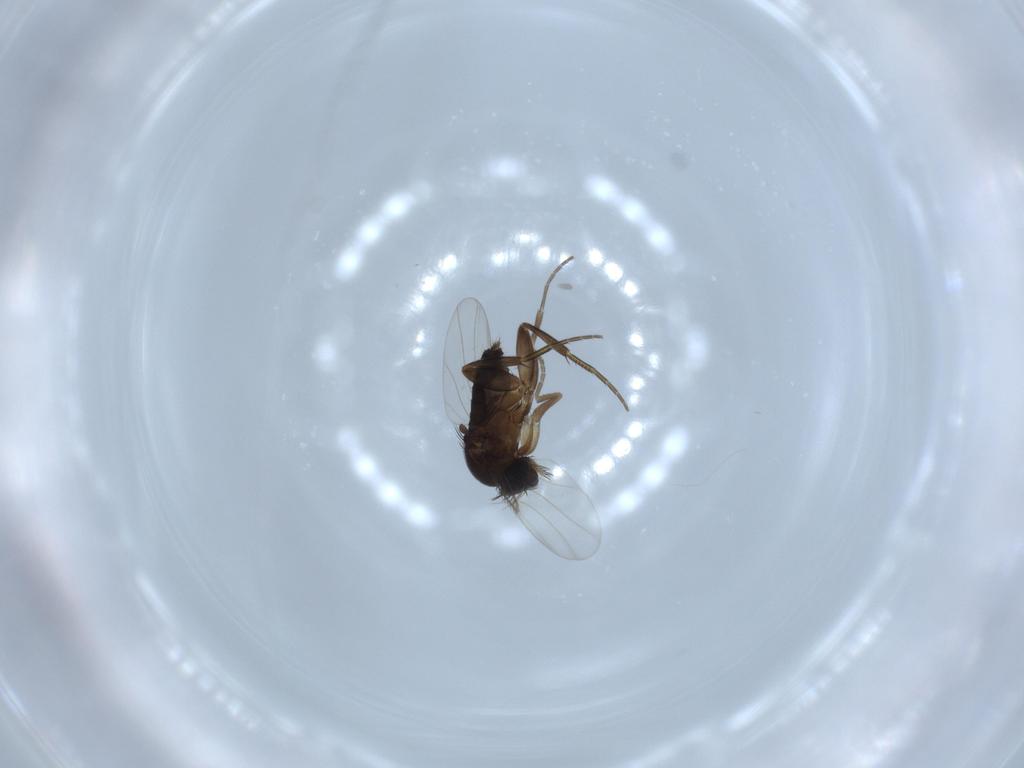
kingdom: Animalia
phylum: Arthropoda
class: Insecta
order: Diptera
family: Phoridae
